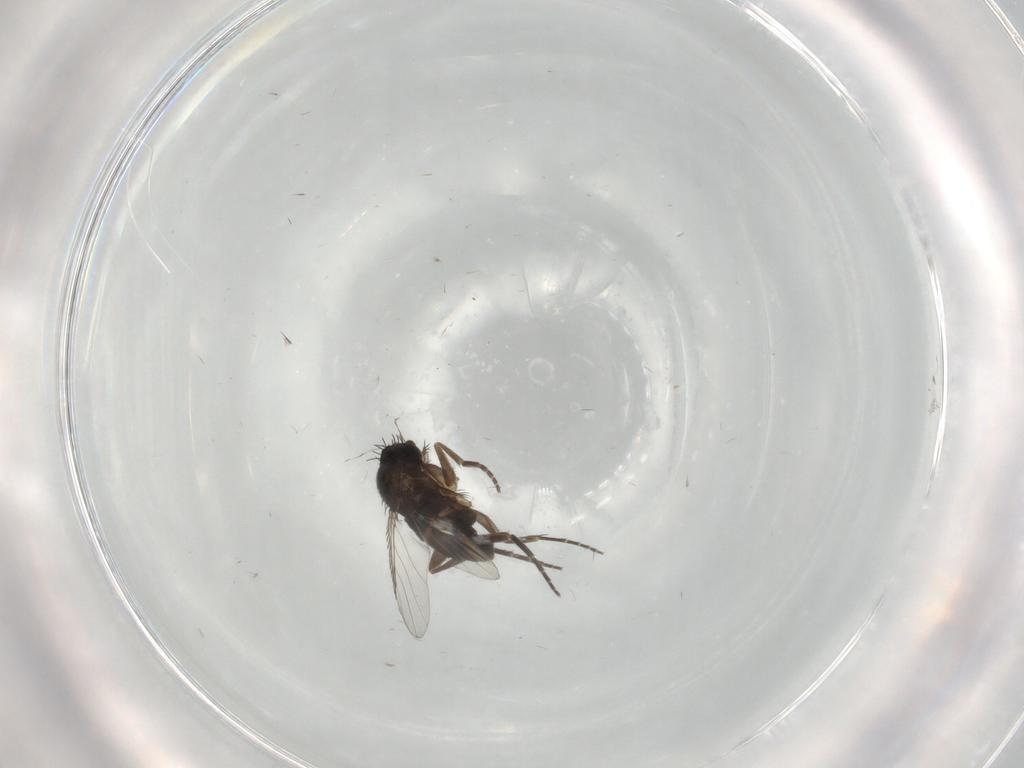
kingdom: Animalia
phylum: Arthropoda
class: Insecta
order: Diptera
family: Phoridae
